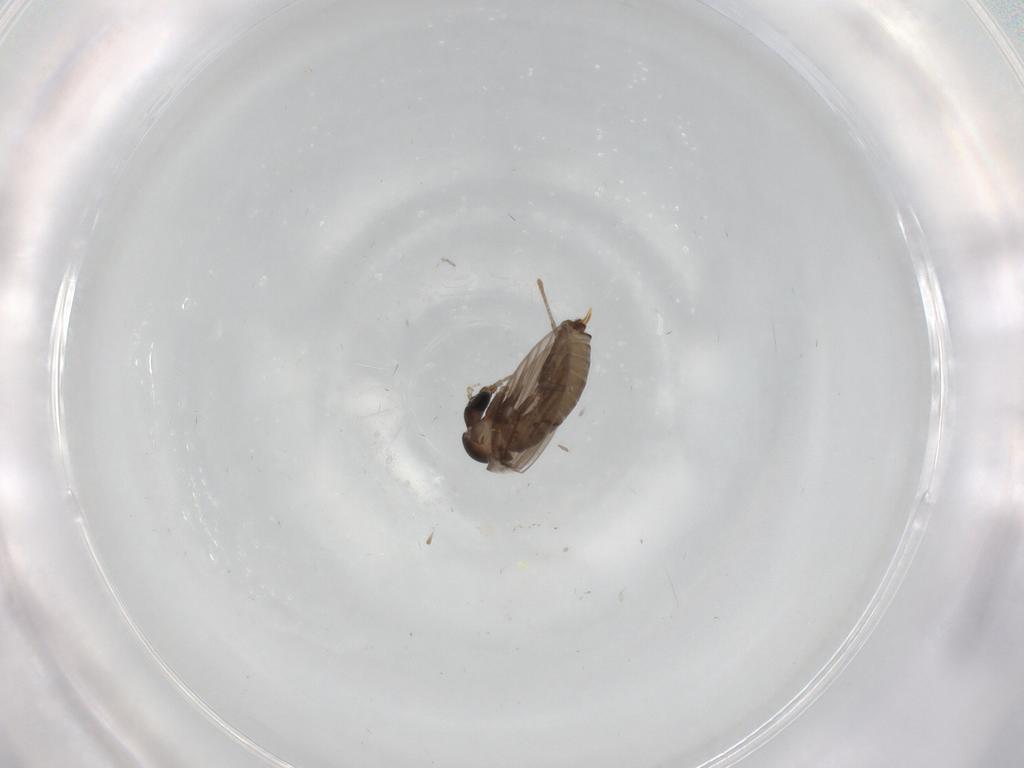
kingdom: Animalia
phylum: Arthropoda
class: Insecta
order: Diptera
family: Psychodidae
